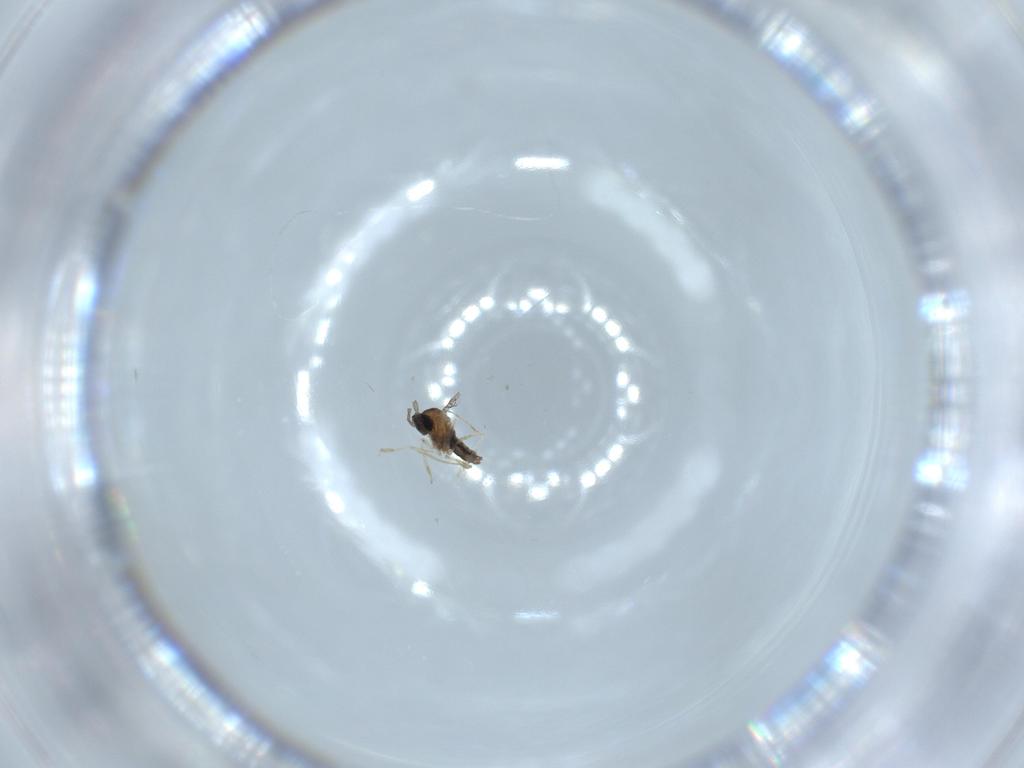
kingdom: Animalia
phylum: Arthropoda
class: Insecta
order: Diptera
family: Cecidomyiidae
